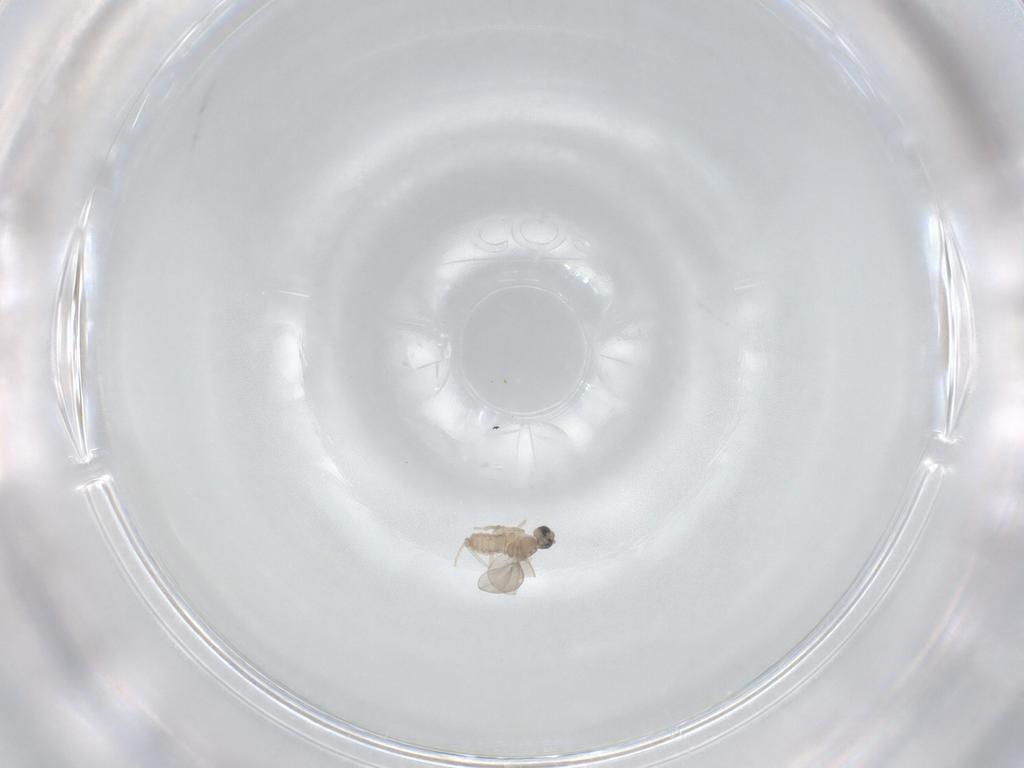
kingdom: Animalia
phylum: Arthropoda
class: Insecta
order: Diptera
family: Cecidomyiidae
